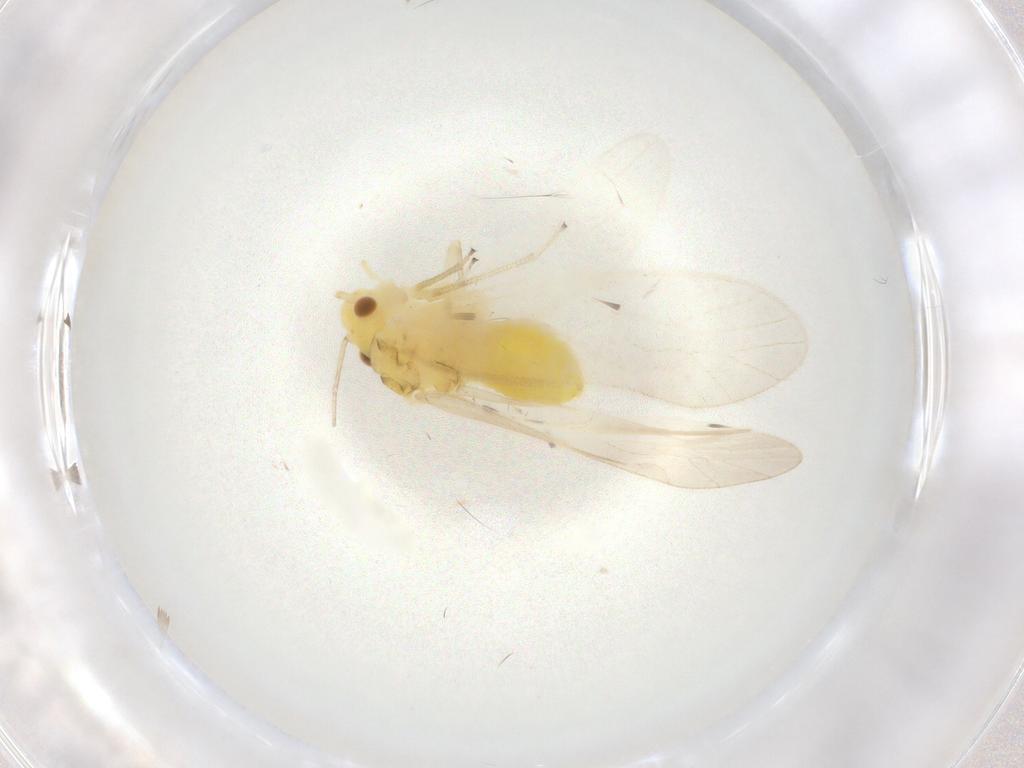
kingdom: Animalia
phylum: Arthropoda
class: Insecta
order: Psocodea
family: Caeciliusidae
